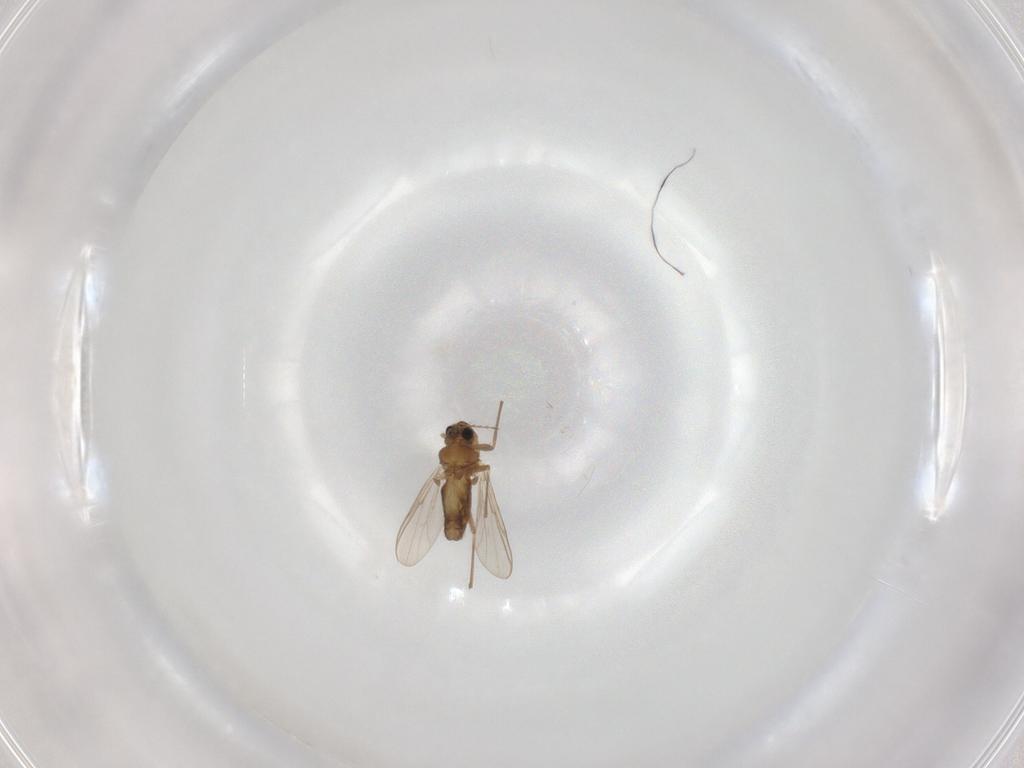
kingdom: Animalia
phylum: Arthropoda
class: Insecta
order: Diptera
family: Chironomidae
